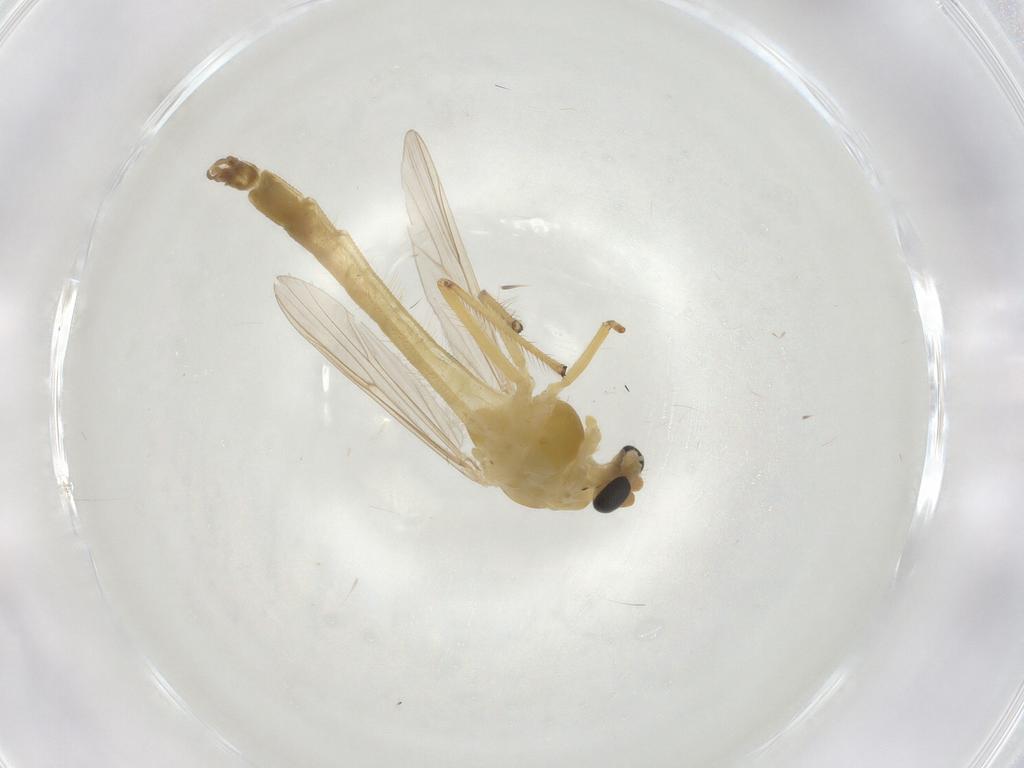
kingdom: Animalia
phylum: Arthropoda
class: Insecta
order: Diptera
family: Chironomidae
